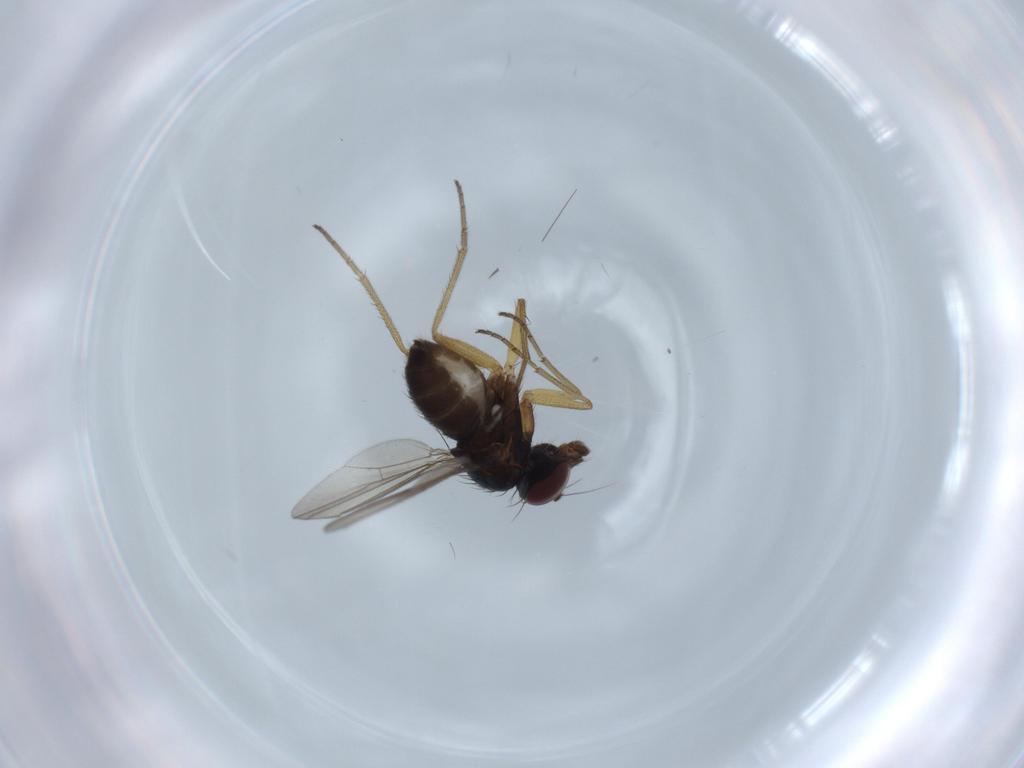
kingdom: Animalia
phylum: Arthropoda
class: Insecta
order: Diptera
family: Dolichopodidae
